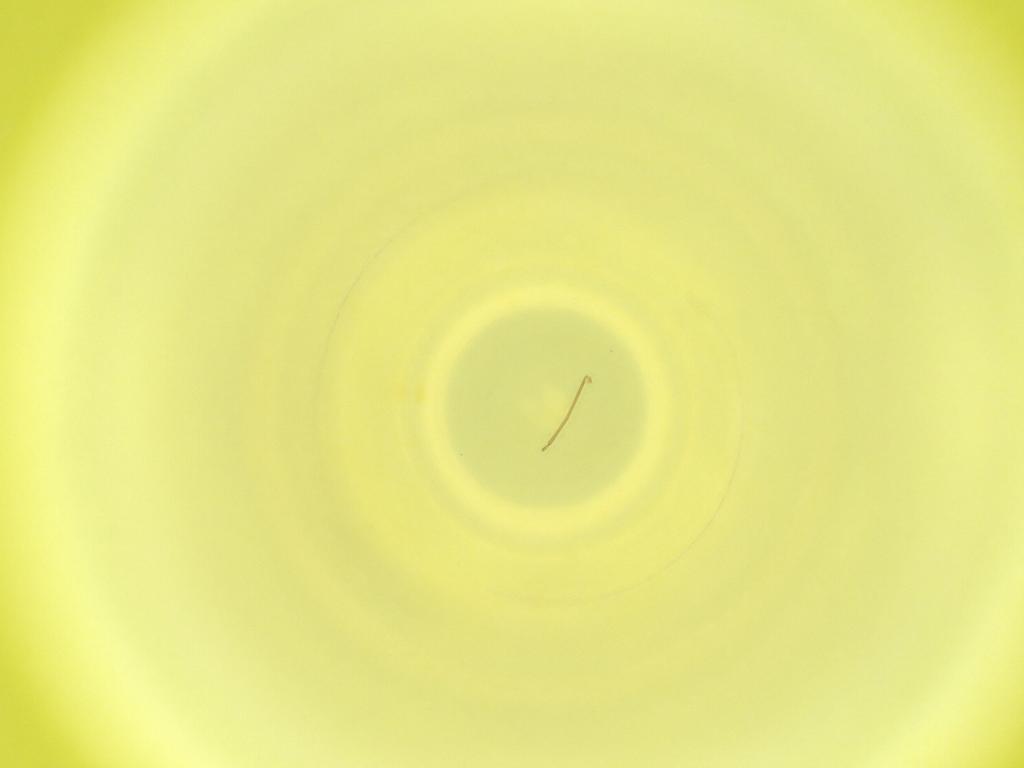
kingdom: Animalia
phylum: Arthropoda
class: Insecta
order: Diptera
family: Cecidomyiidae
